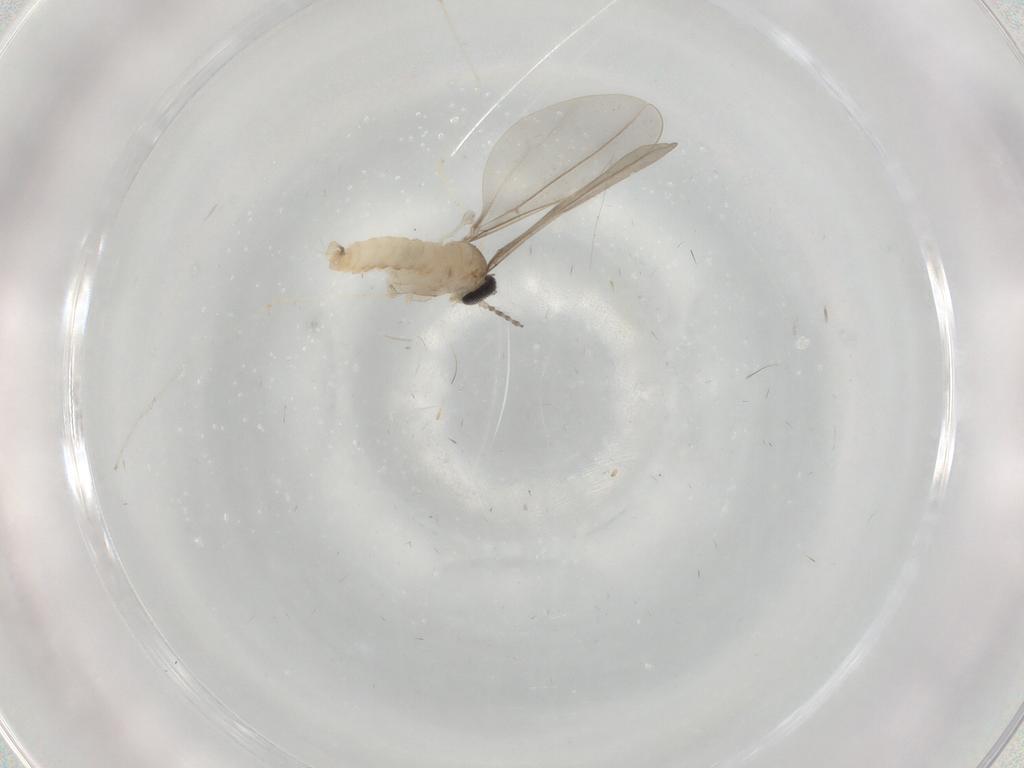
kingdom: Animalia
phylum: Arthropoda
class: Insecta
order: Diptera
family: Cecidomyiidae
